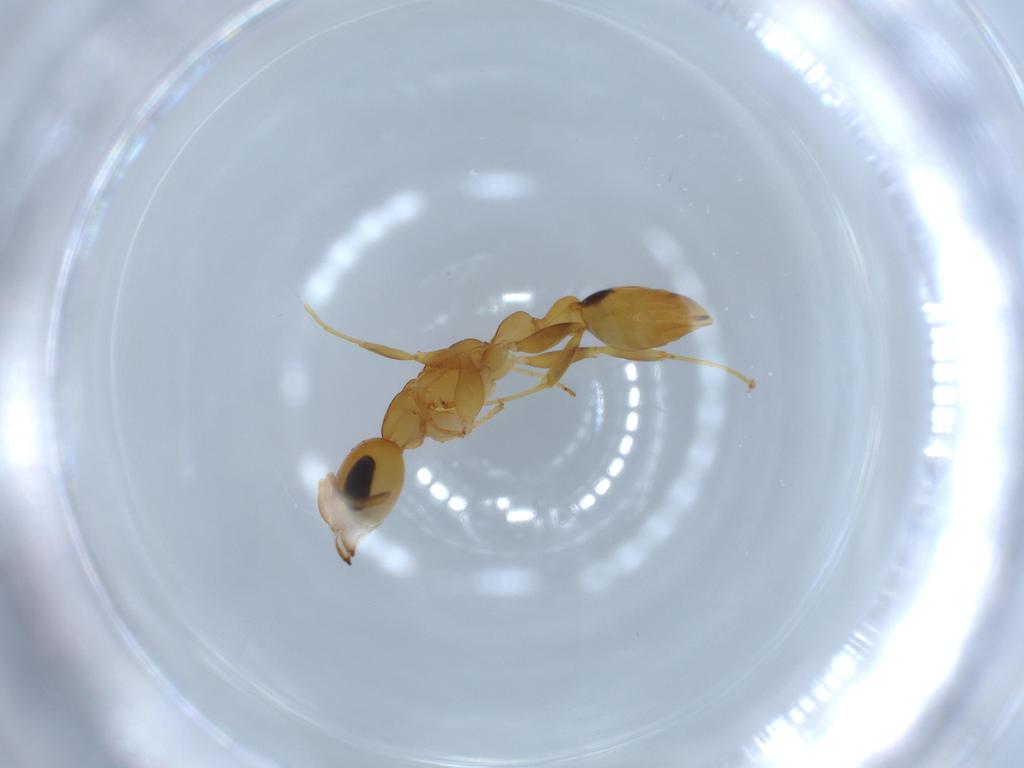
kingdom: Animalia
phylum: Arthropoda
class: Insecta
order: Hymenoptera
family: Formicidae
